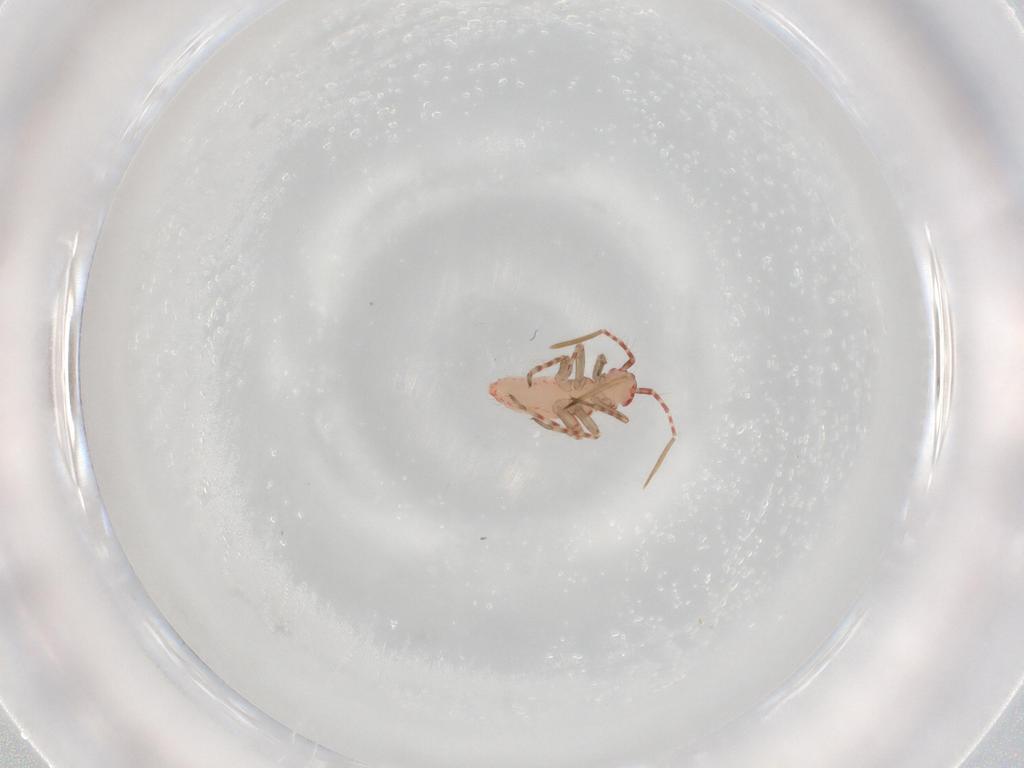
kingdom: Animalia
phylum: Arthropoda
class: Insecta
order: Hemiptera
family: Miridae
